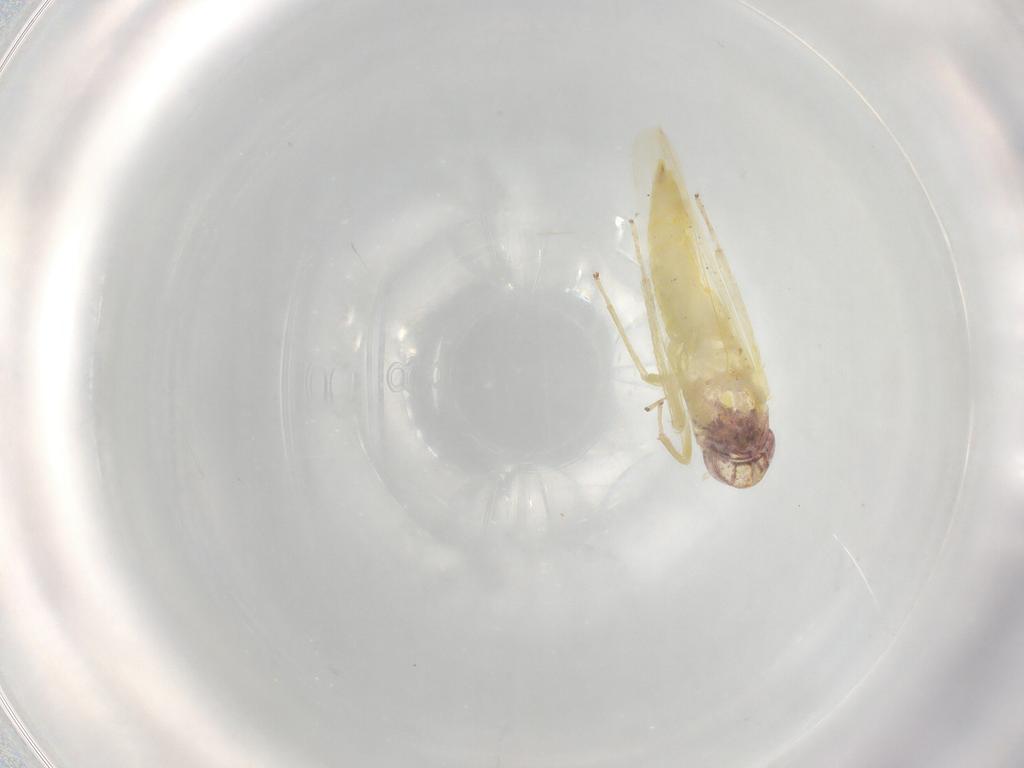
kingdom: Animalia
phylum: Arthropoda
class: Insecta
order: Hemiptera
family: Cicadellidae
